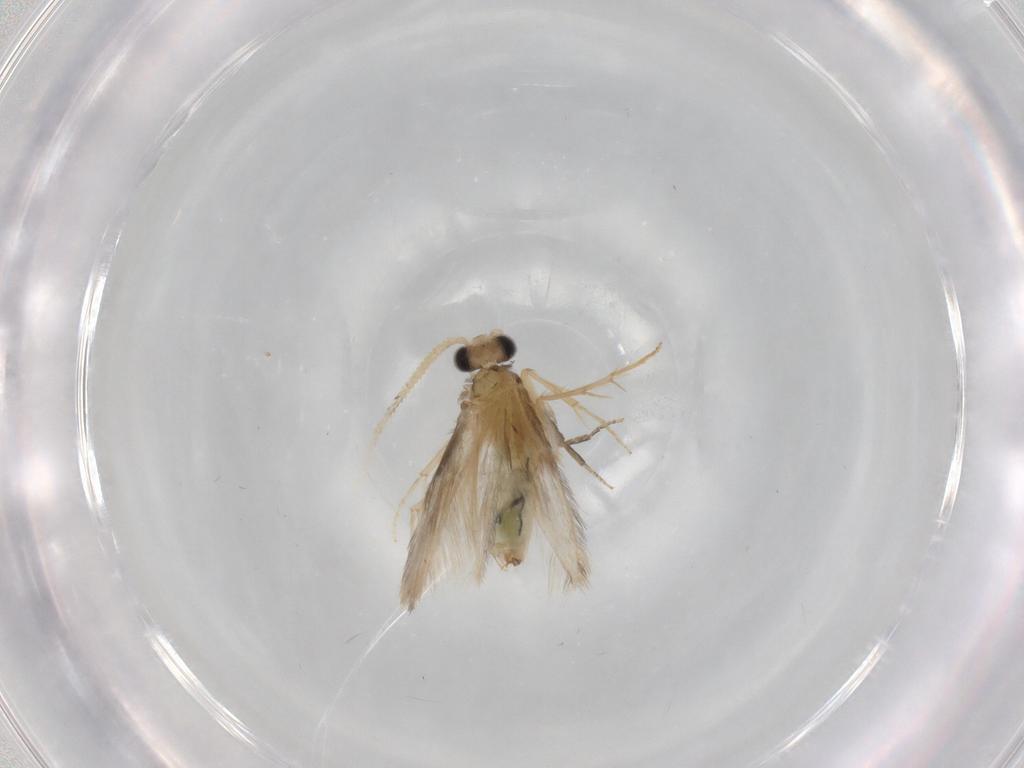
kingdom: Animalia
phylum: Arthropoda
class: Insecta
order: Trichoptera
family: Hydroptilidae
